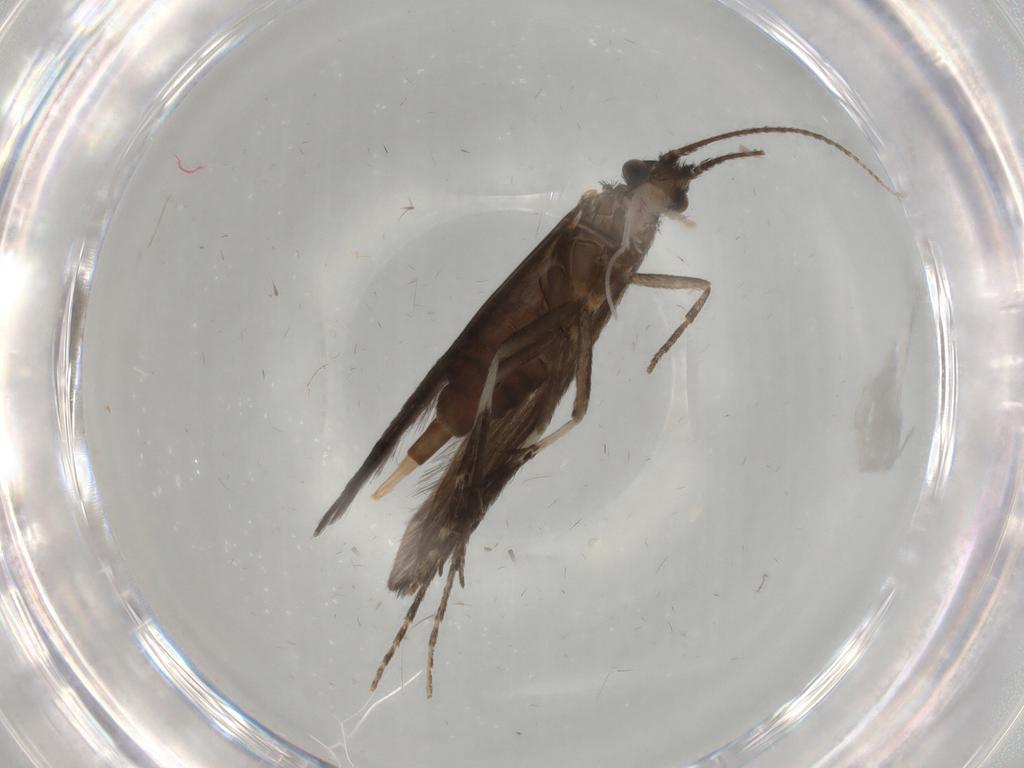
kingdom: Animalia
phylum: Arthropoda
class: Insecta
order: Trichoptera
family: Xiphocentronidae
